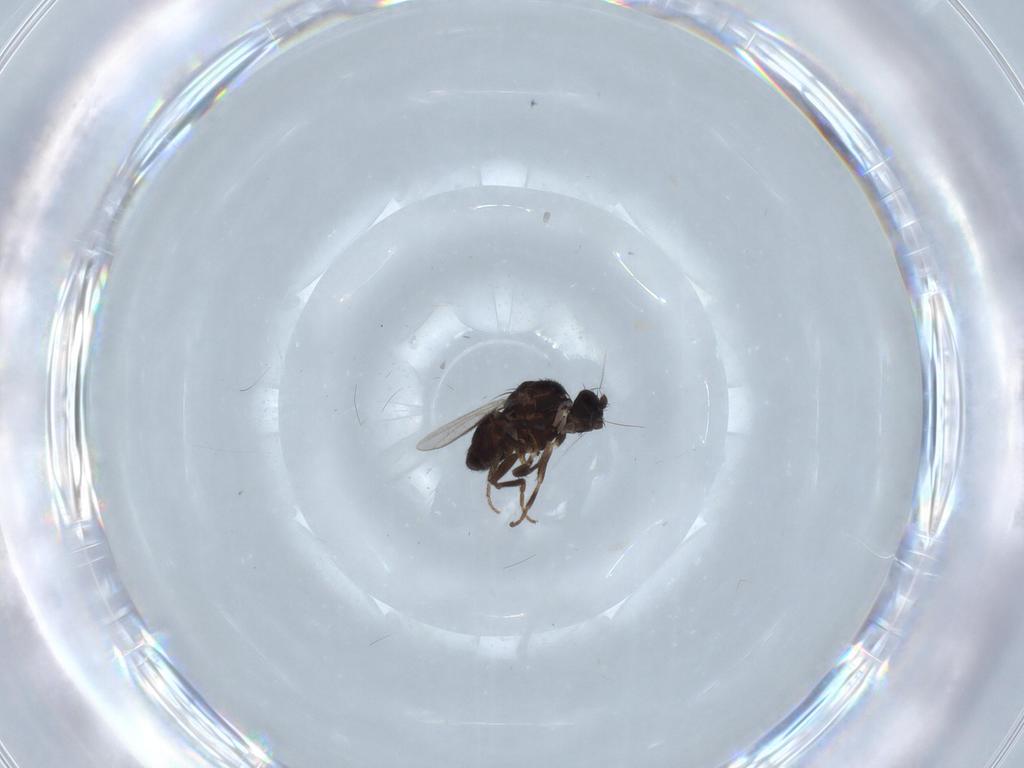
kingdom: Animalia
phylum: Arthropoda
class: Insecta
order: Diptera
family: Sphaeroceridae
